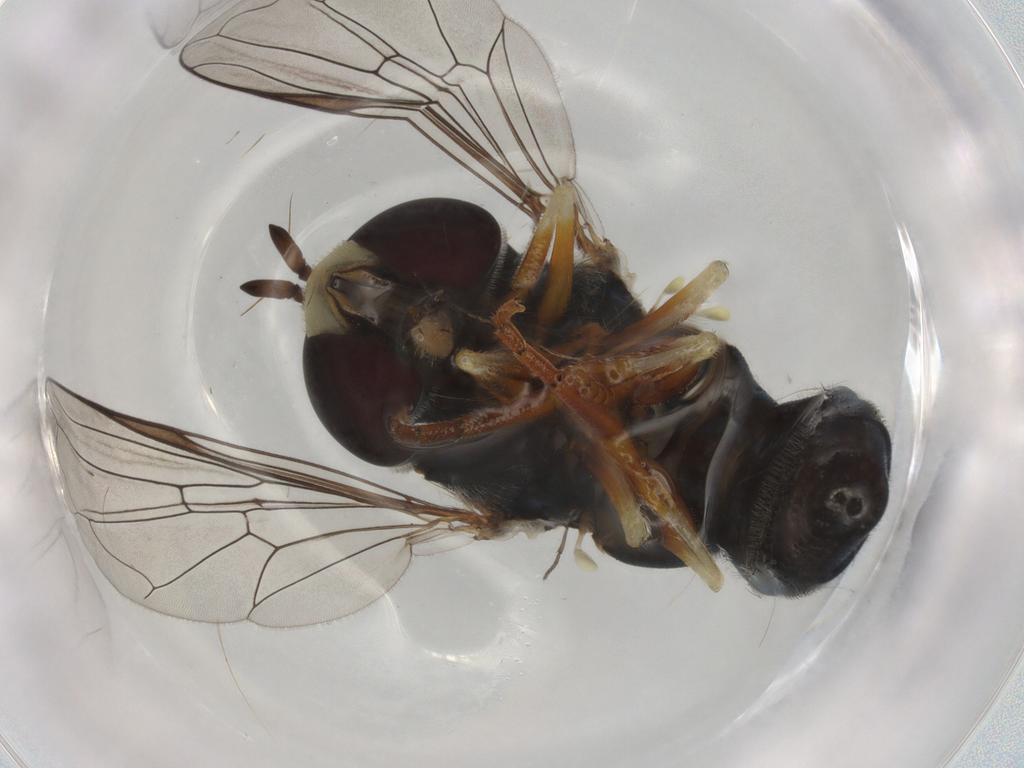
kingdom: Animalia
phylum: Arthropoda
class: Insecta
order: Diptera
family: Syrphidae
